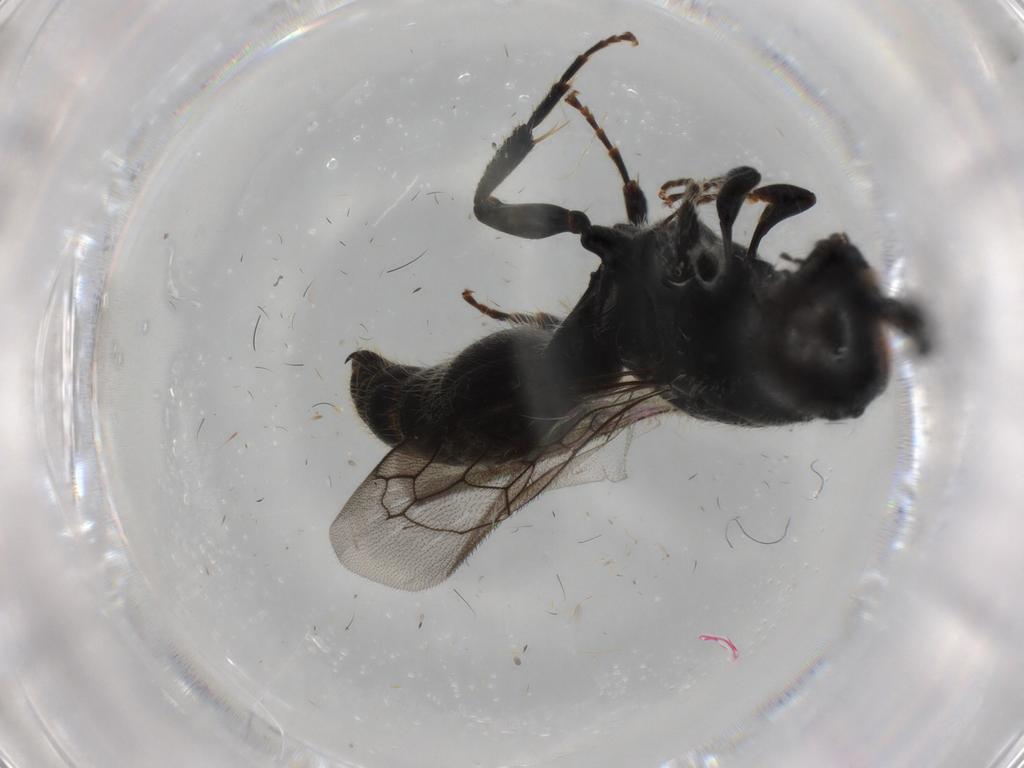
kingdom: Animalia
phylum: Arthropoda
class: Insecta
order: Hymenoptera
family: Tiphiidae
